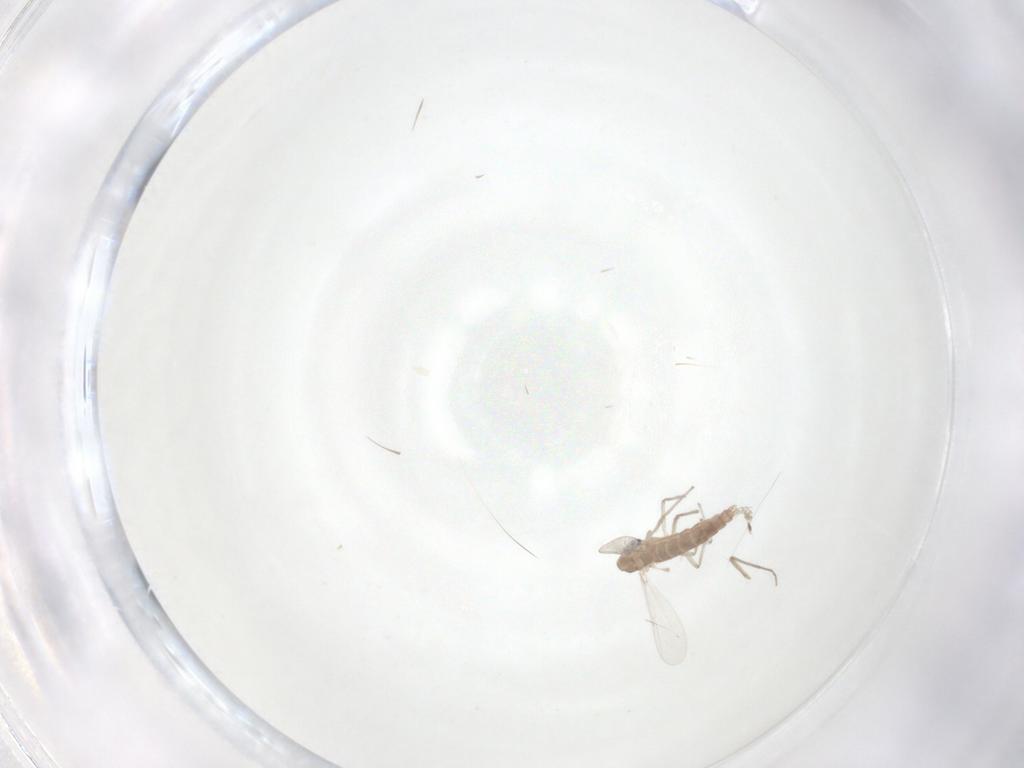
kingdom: Animalia
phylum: Arthropoda
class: Insecta
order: Diptera
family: Chironomidae
